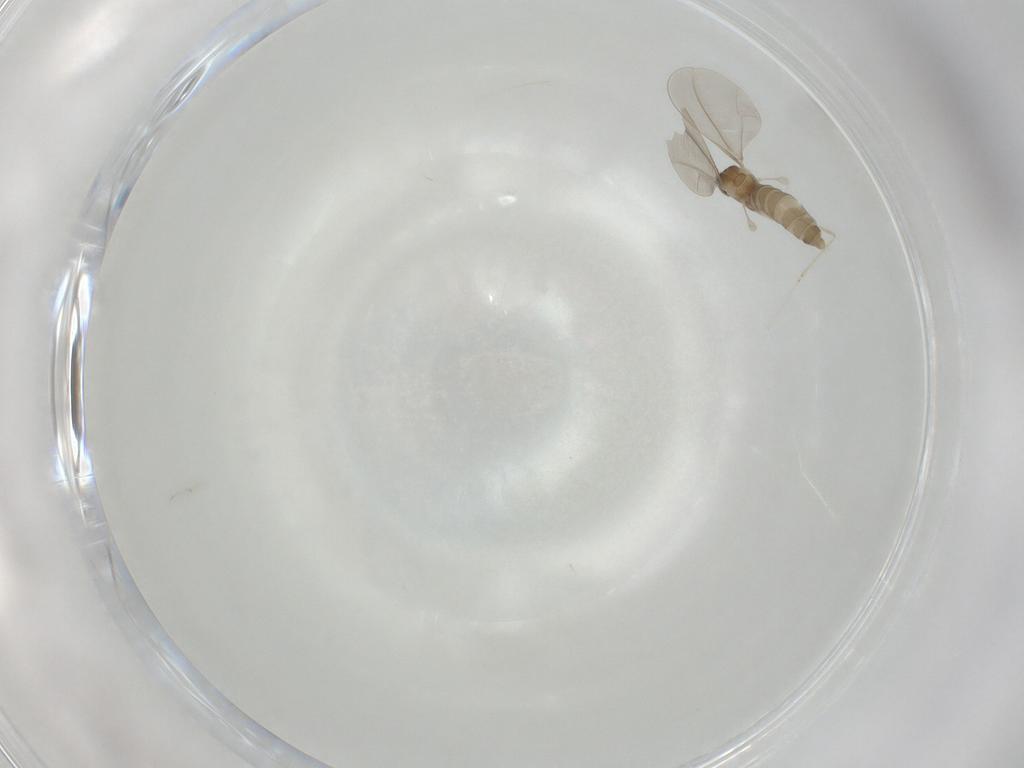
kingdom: Animalia
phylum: Arthropoda
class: Insecta
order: Diptera
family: Cecidomyiidae
